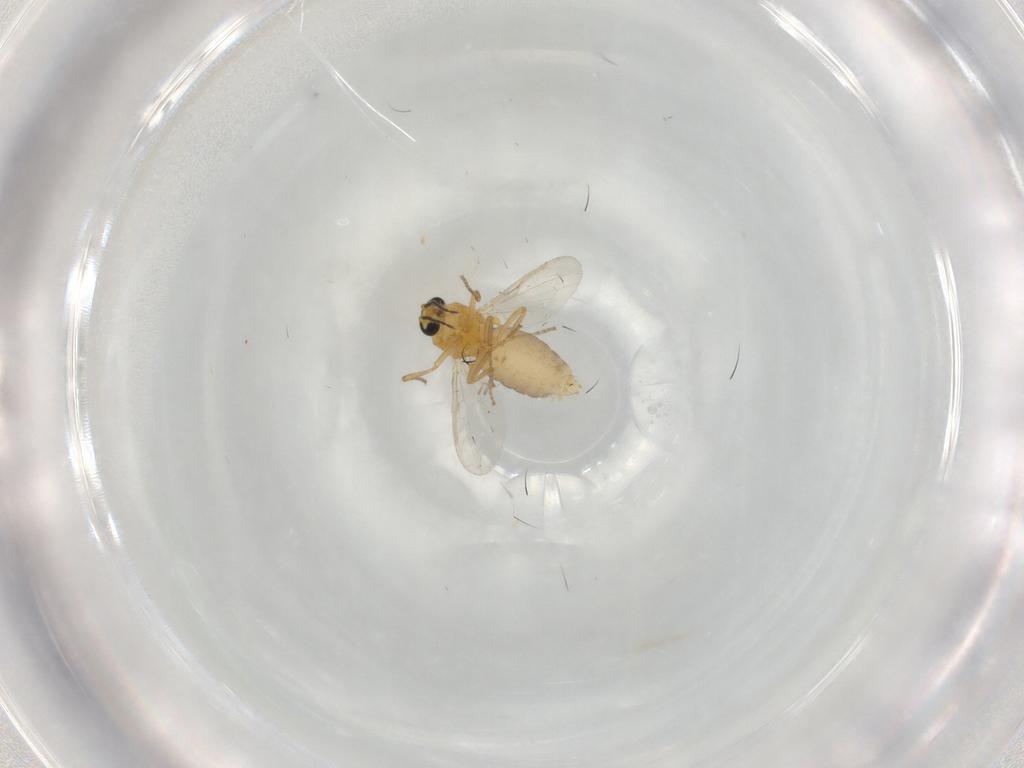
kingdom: Animalia
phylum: Arthropoda
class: Insecta
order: Diptera
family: Ceratopogonidae
